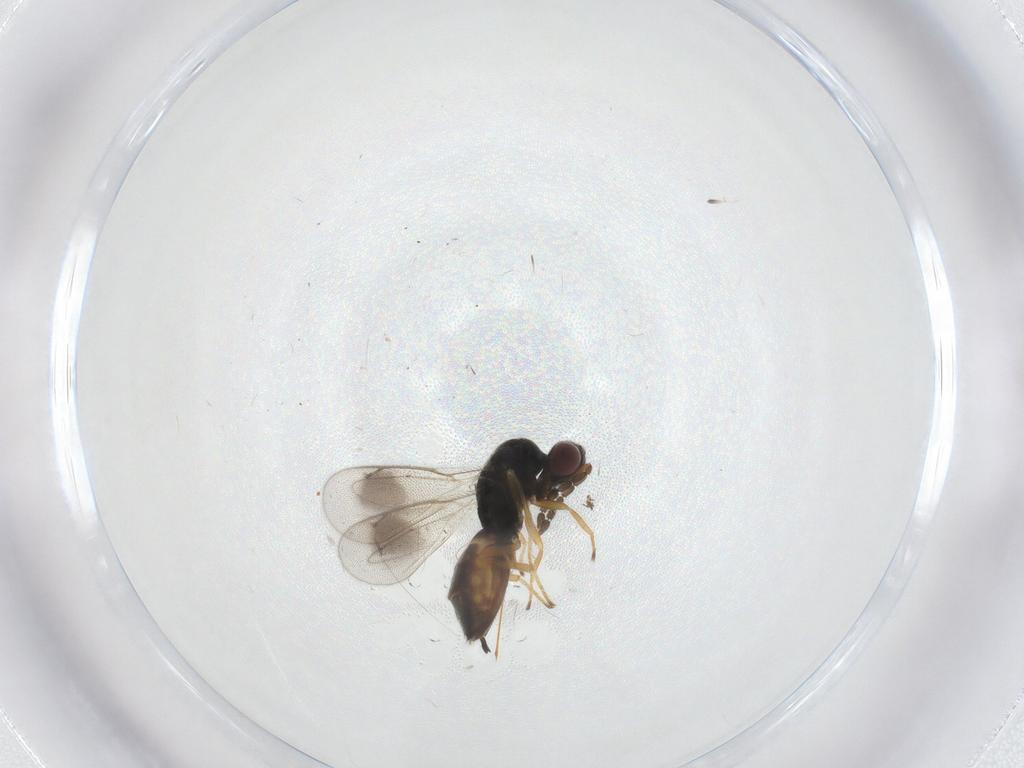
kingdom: Animalia
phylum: Arthropoda
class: Insecta
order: Hymenoptera
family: Eulophidae
